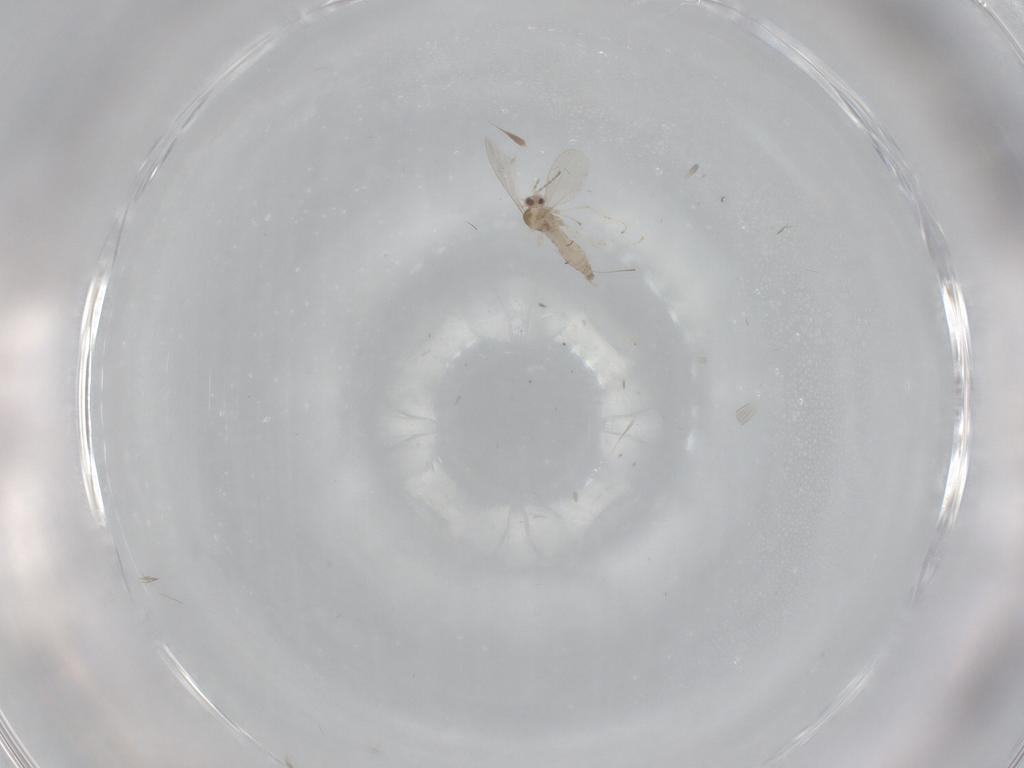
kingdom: Animalia
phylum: Arthropoda
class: Insecta
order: Diptera
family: Cecidomyiidae
